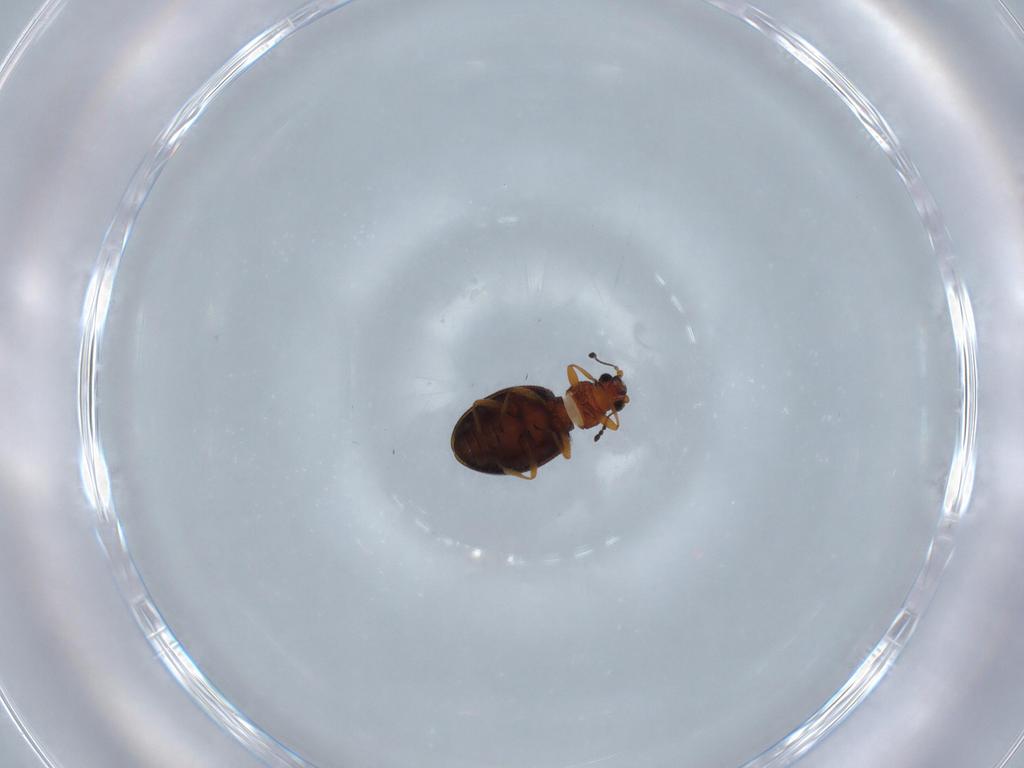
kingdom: Animalia
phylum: Arthropoda
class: Insecta
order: Coleoptera
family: Latridiidae
